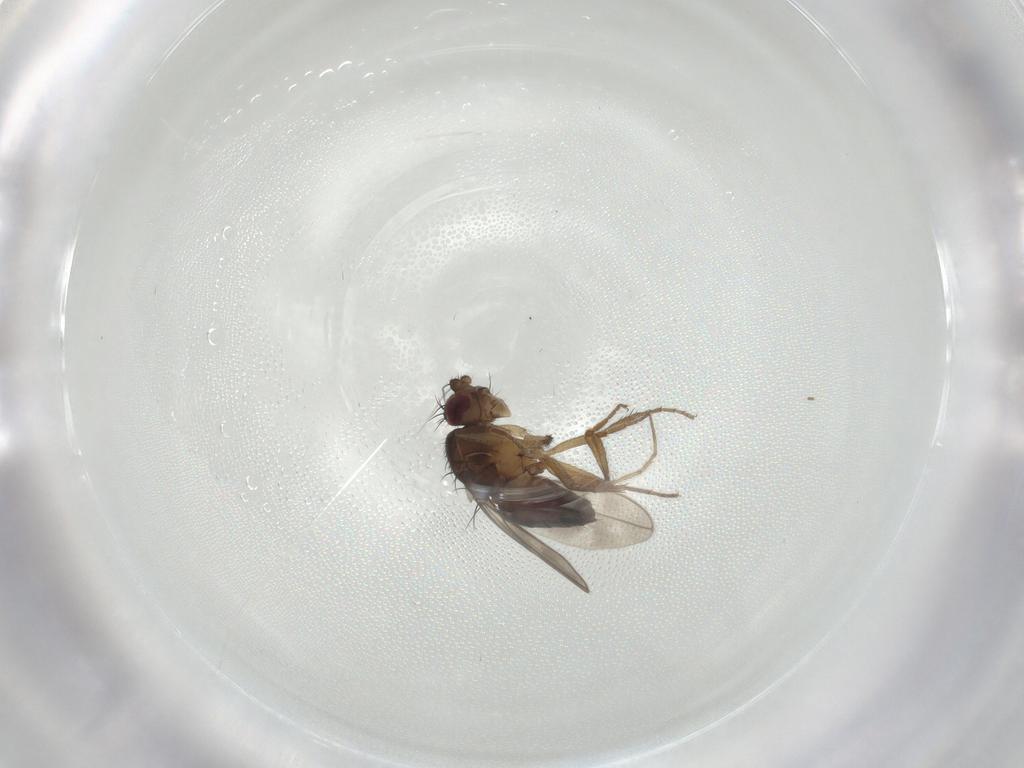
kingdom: Animalia
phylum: Arthropoda
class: Insecta
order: Diptera
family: Sphaeroceridae
